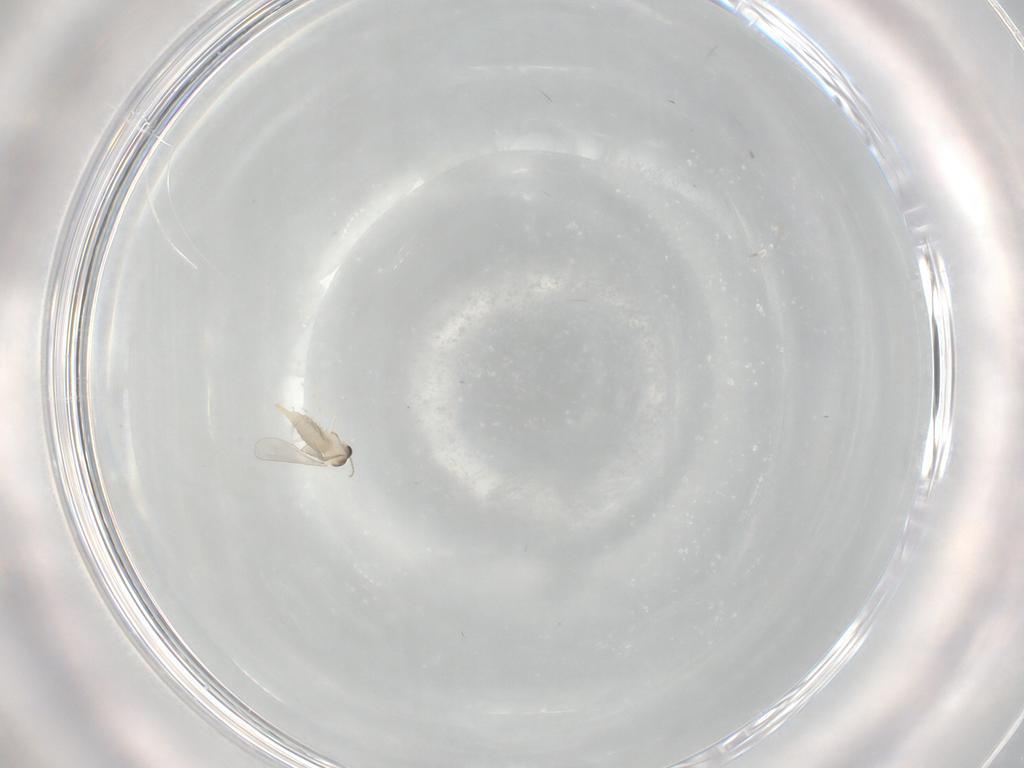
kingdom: Animalia
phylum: Arthropoda
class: Insecta
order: Diptera
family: Cecidomyiidae
